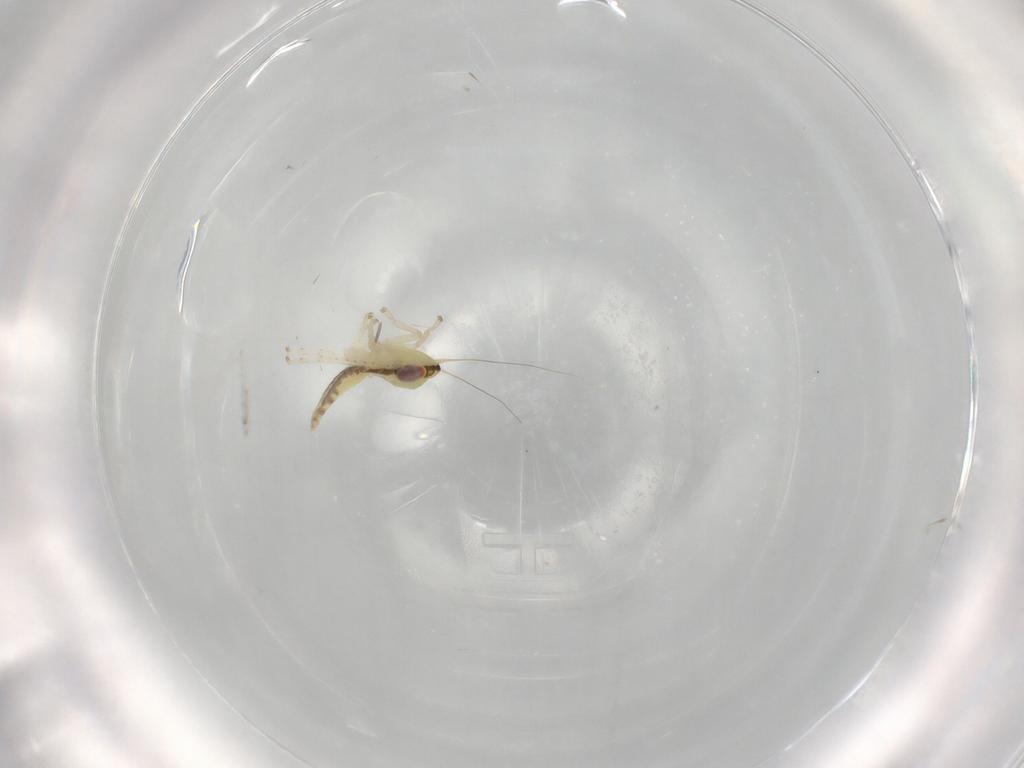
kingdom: Animalia
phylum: Arthropoda
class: Insecta
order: Hemiptera
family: Cicadellidae
